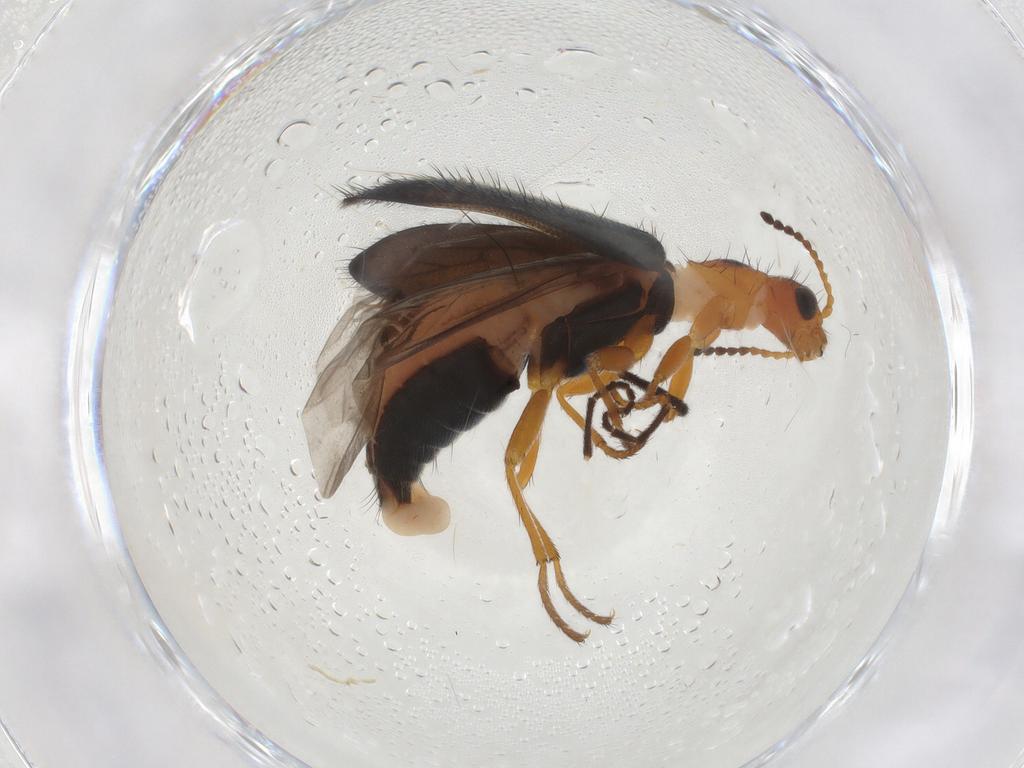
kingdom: Animalia
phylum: Arthropoda
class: Insecta
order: Coleoptera
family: Melyridae
